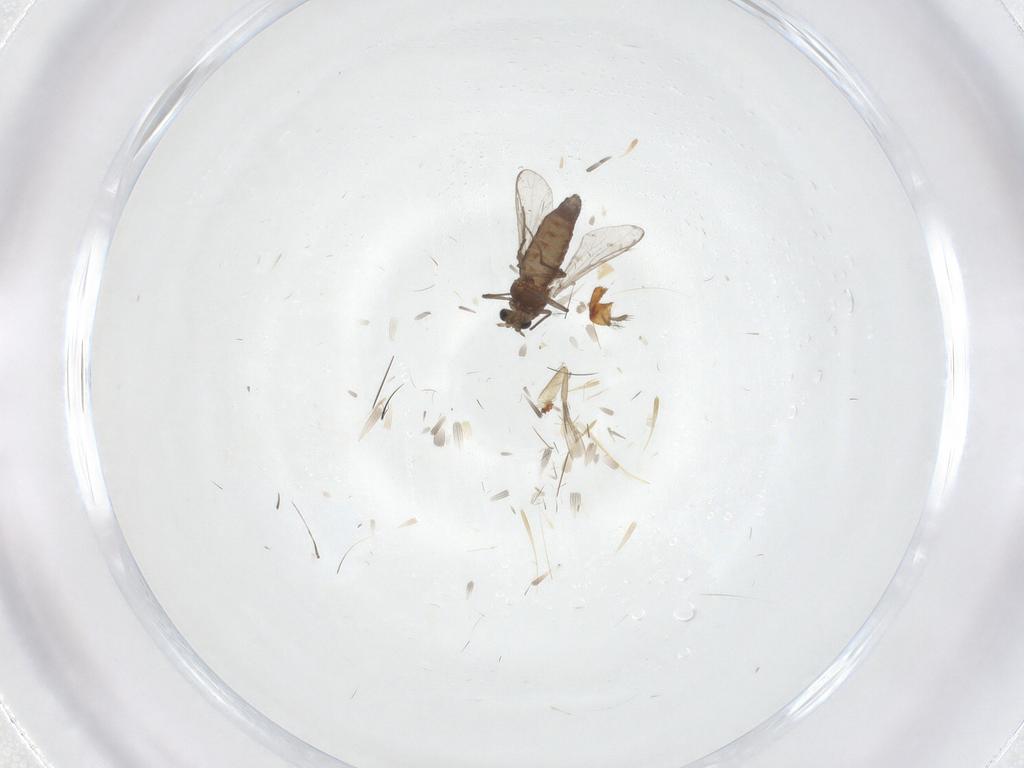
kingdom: Animalia
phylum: Arthropoda
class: Insecta
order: Diptera
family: Chironomidae
